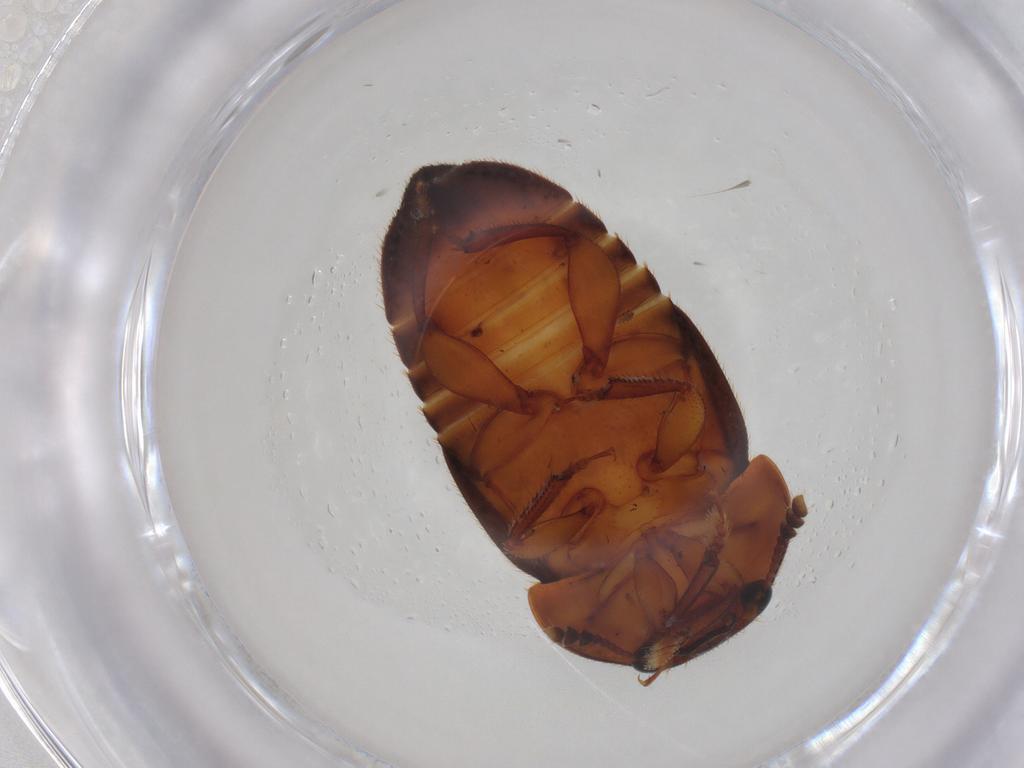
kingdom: Animalia
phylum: Arthropoda
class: Insecta
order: Coleoptera
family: Nitidulidae
